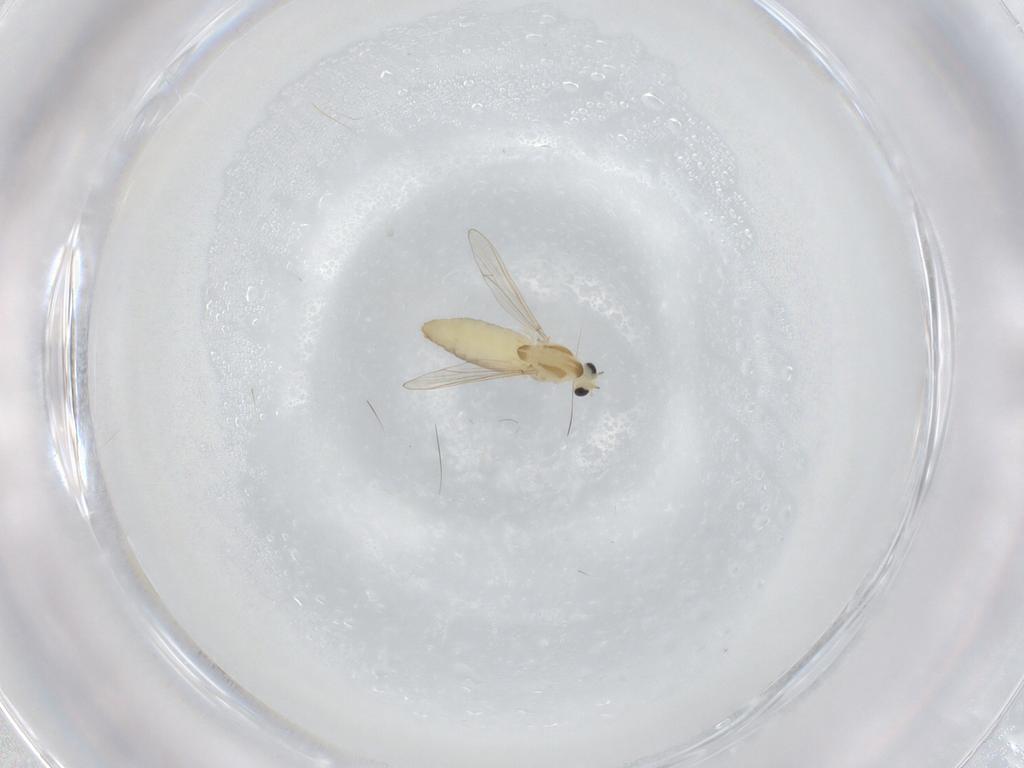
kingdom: Animalia
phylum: Arthropoda
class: Insecta
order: Diptera
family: Chironomidae
